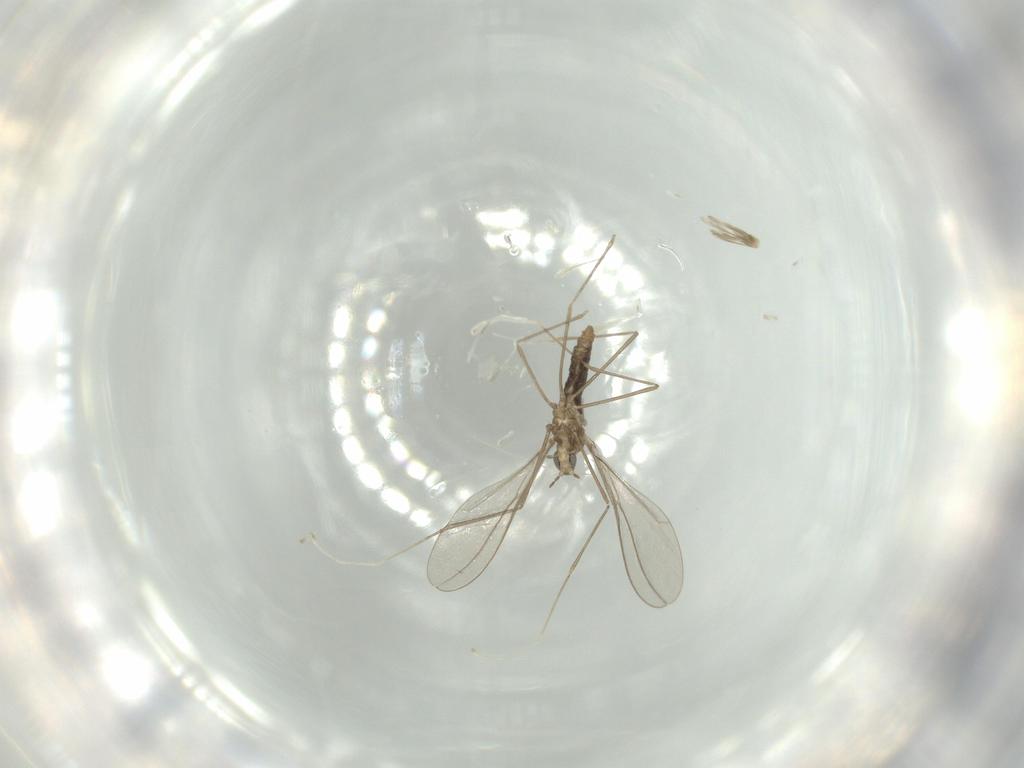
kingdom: Animalia
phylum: Arthropoda
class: Insecta
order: Diptera
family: Cecidomyiidae
